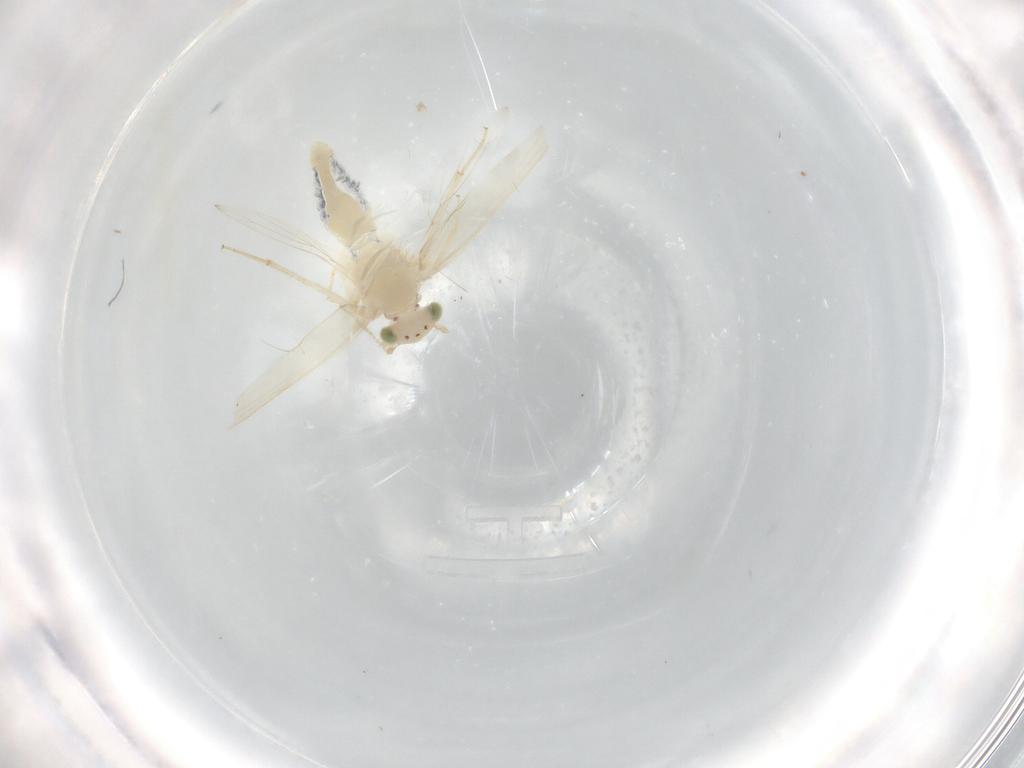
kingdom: Animalia
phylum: Arthropoda
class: Insecta
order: Psocodea
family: Lepidopsocidae
